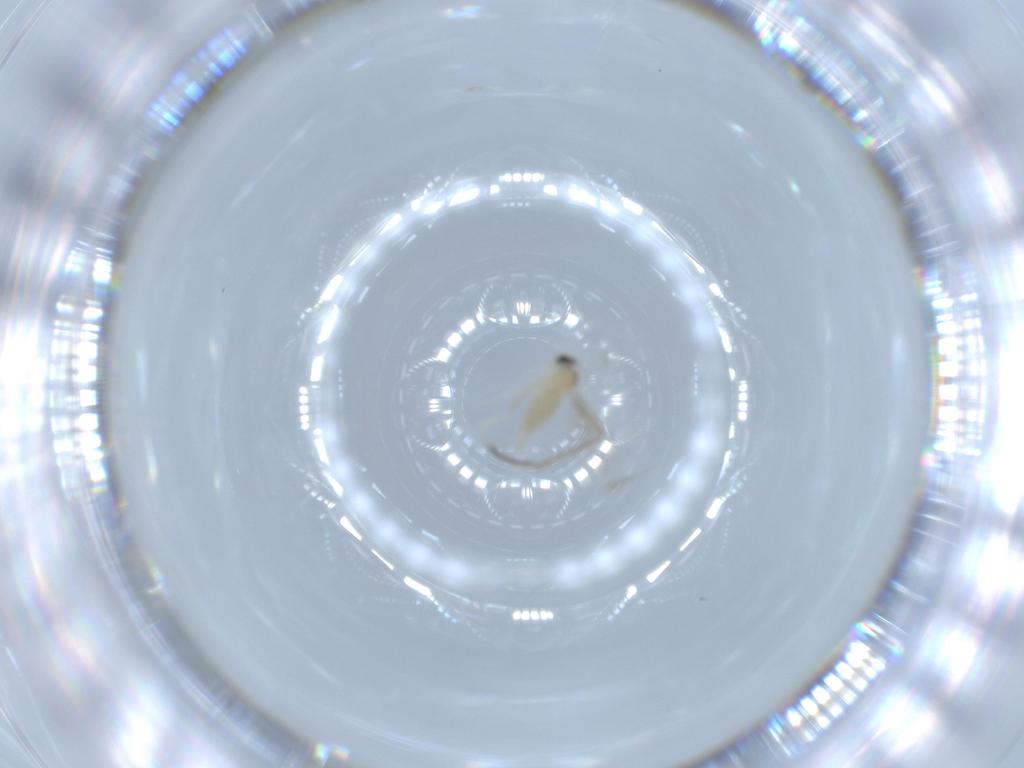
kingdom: Animalia
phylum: Arthropoda
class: Insecta
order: Diptera
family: Cecidomyiidae
